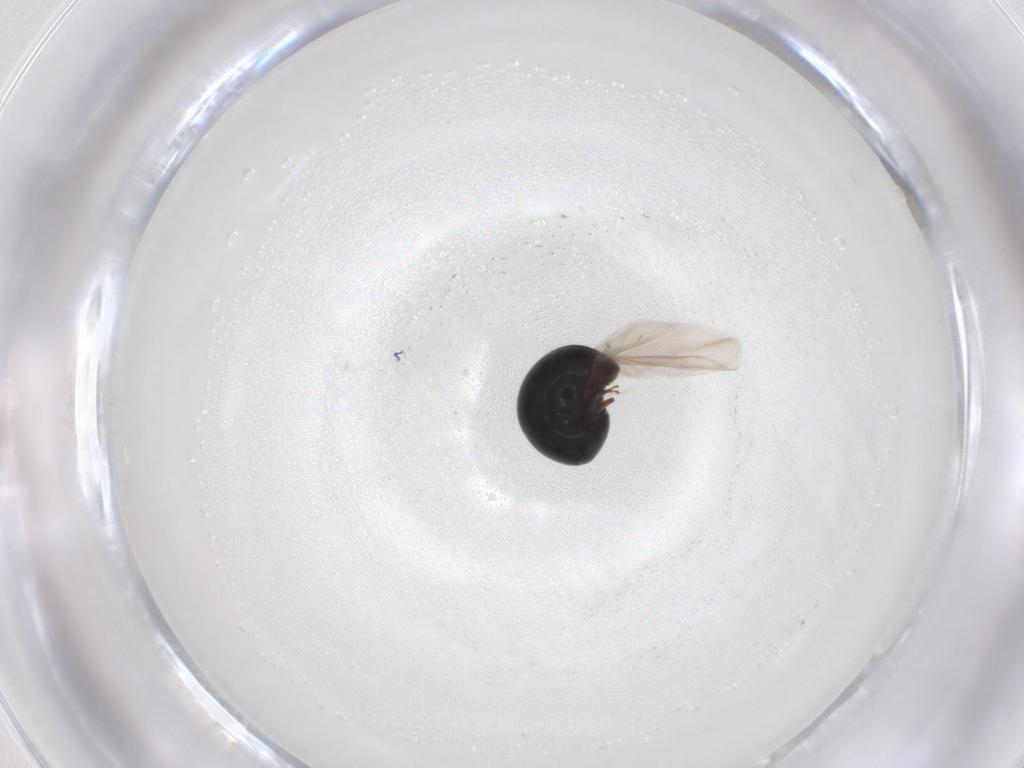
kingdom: Animalia
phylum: Arthropoda
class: Insecta
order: Coleoptera
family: Cybocephalidae
